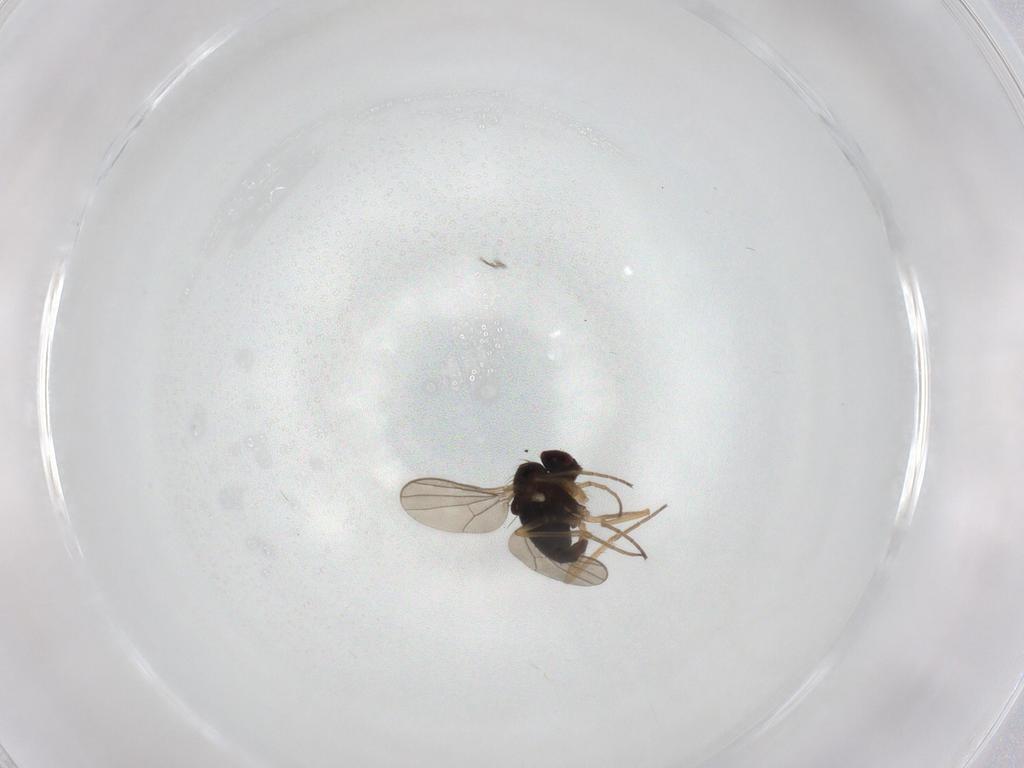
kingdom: Animalia
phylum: Arthropoda
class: Insecta
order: Diptera
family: Dolichopodidae
